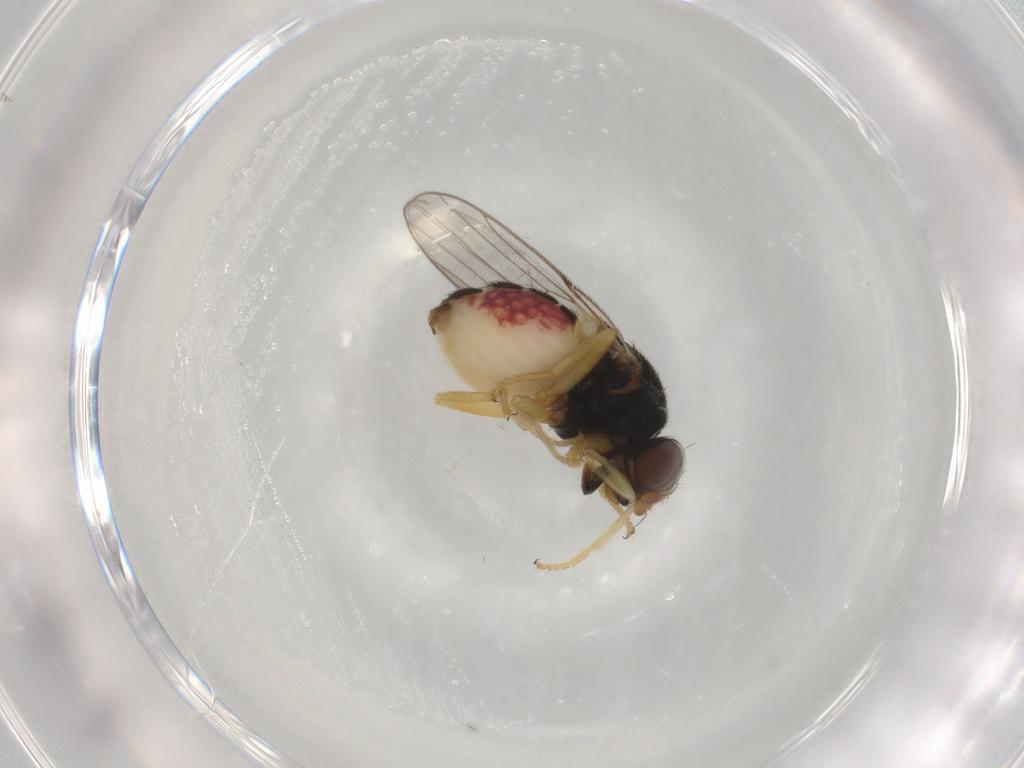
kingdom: Animalia
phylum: Arthropoda
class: Insecta
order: Diptera
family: Chloropidae
